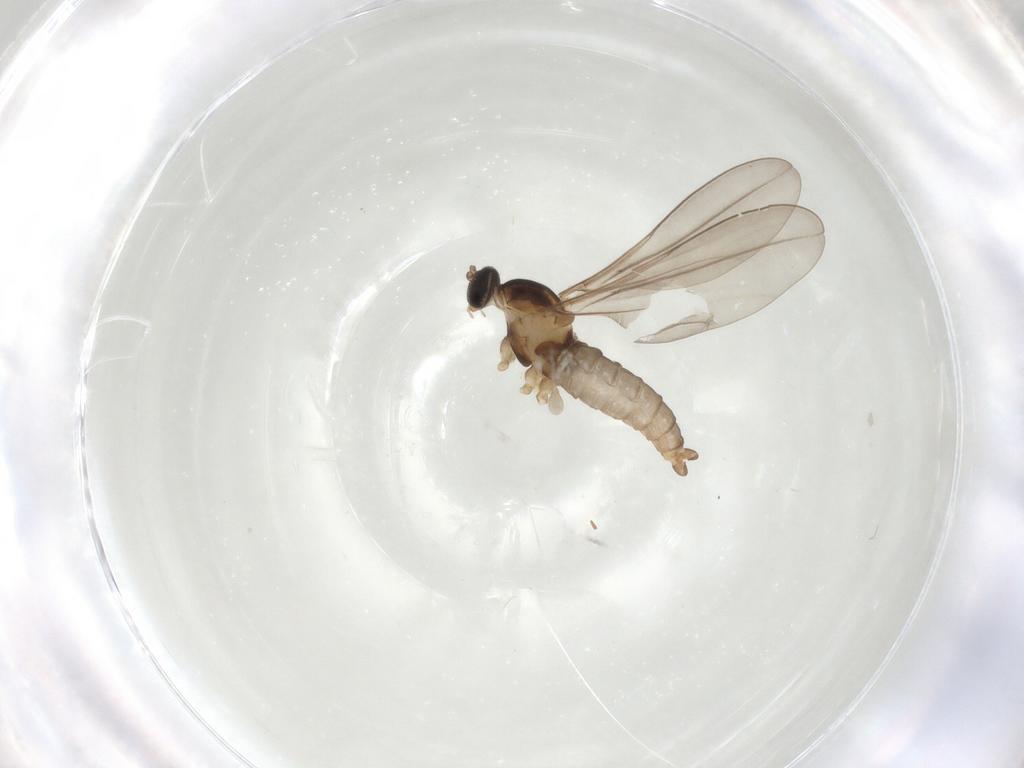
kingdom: Animalia
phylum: Arthropoda
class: Insecta
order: Diptera
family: Cecidomyiidae
